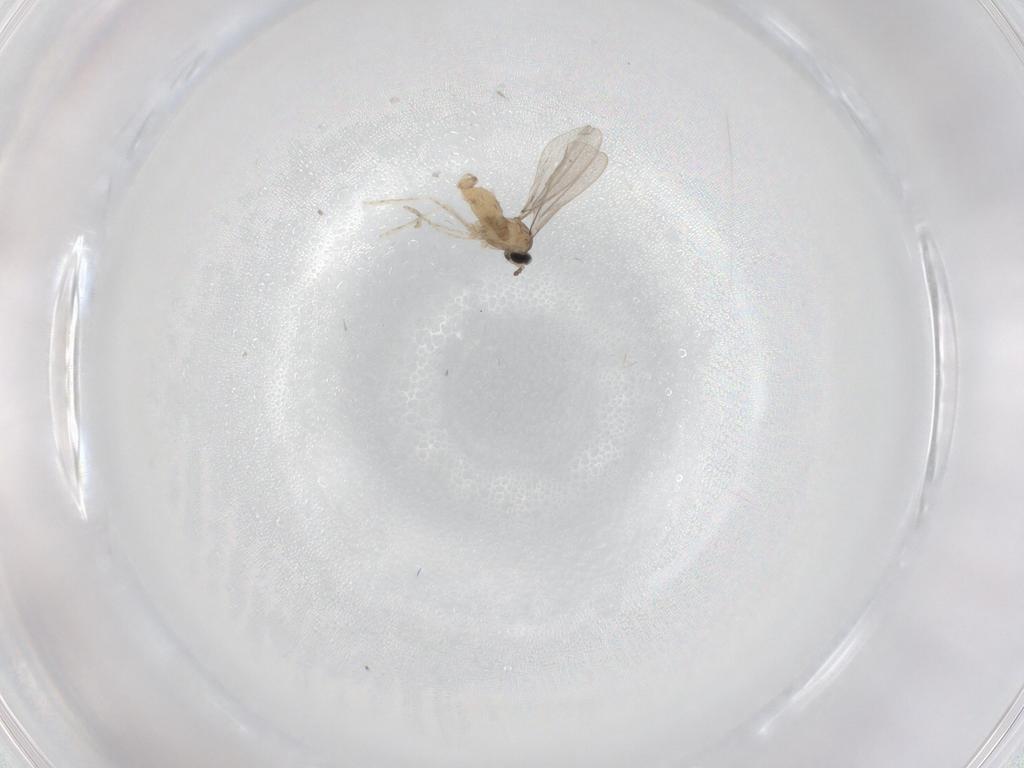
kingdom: Animalia
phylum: Arthropoda
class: Insecta
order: Diptera
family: Cecidomyiidae
